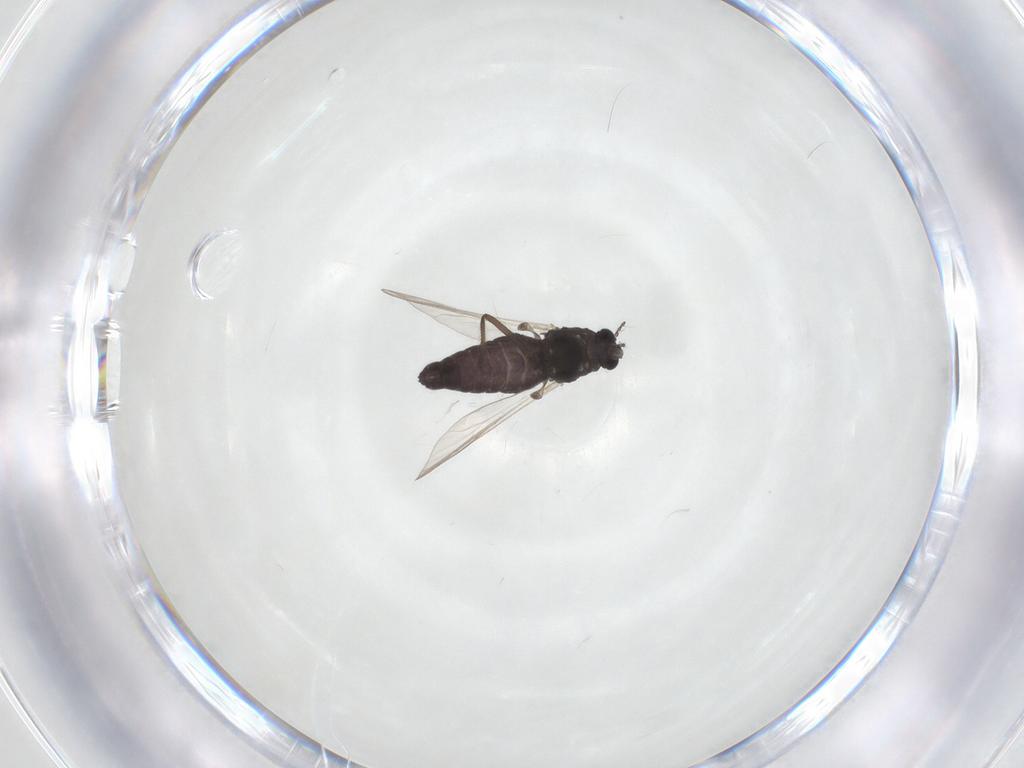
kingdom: Animalia
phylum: Arthropoda
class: Insecta
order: Diptera
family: Chironomidae
